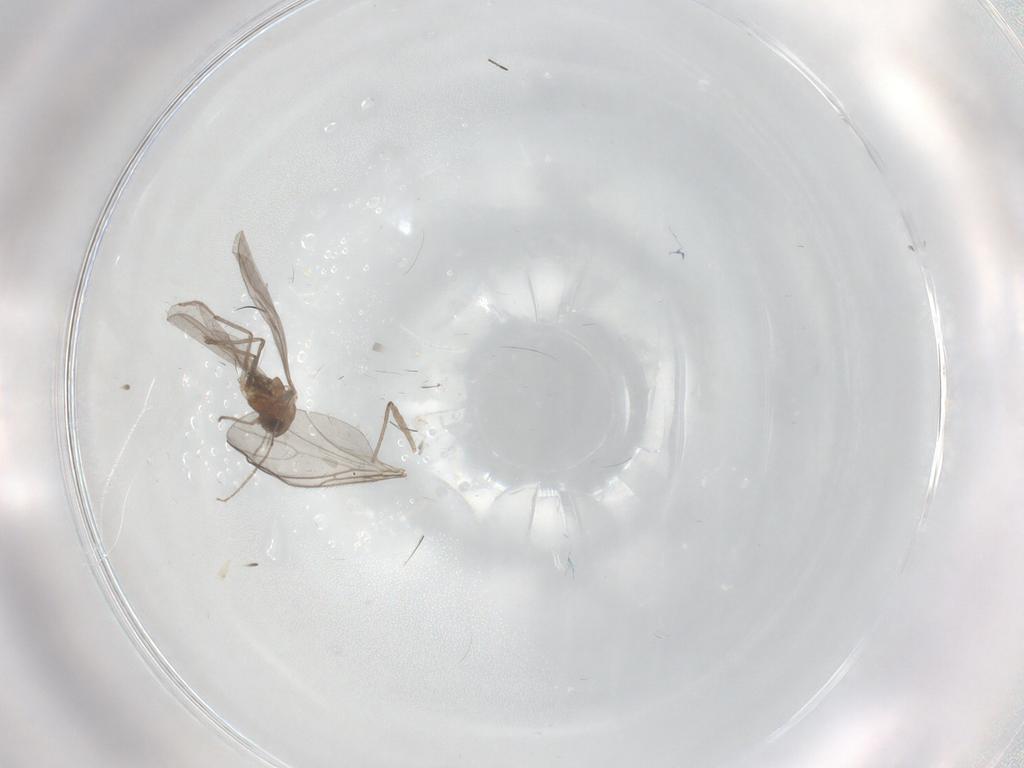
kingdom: Animalia
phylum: Arthropoda
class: Insecta
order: Diptera
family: Chironomidae
